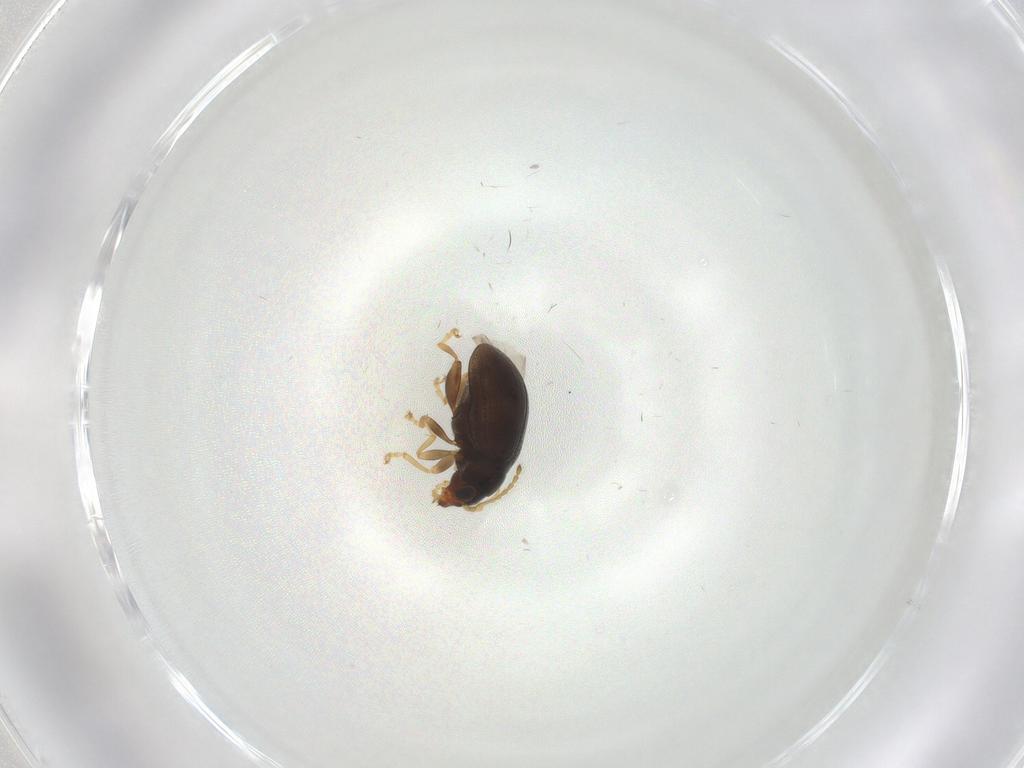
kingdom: Animalia
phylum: Arthropoda
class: Insecta
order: Coleoptera
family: Chrysomelidae
